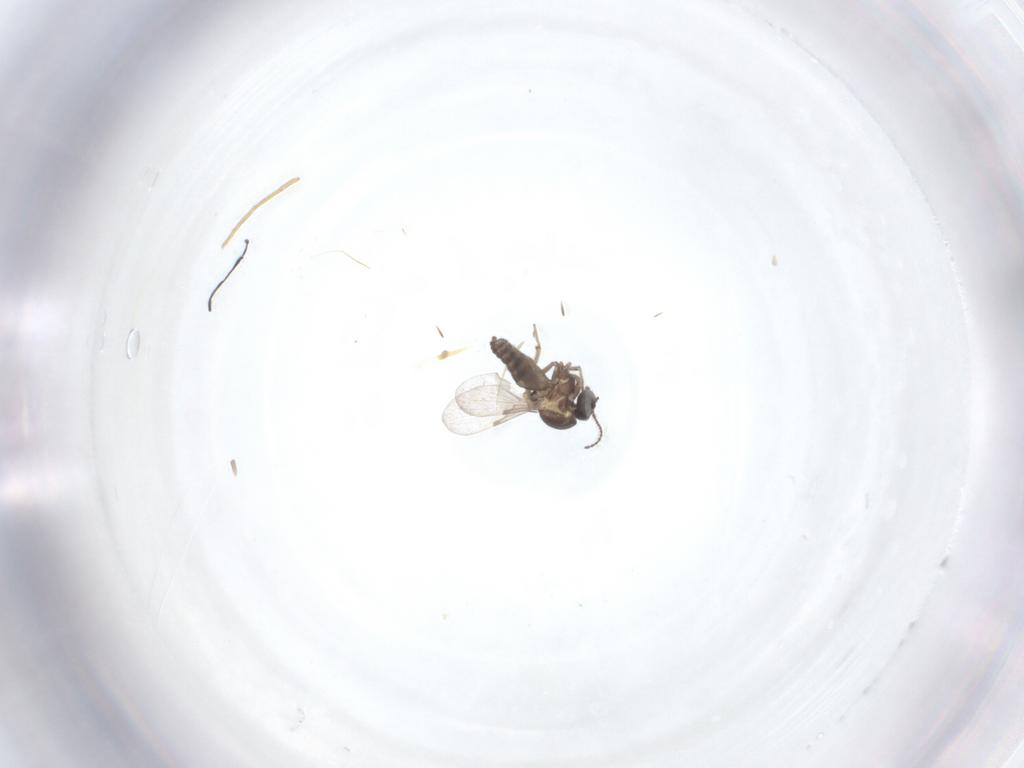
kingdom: Animalia
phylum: Arthropoda
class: Insecta
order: Diptera
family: Ceratopogonidae
